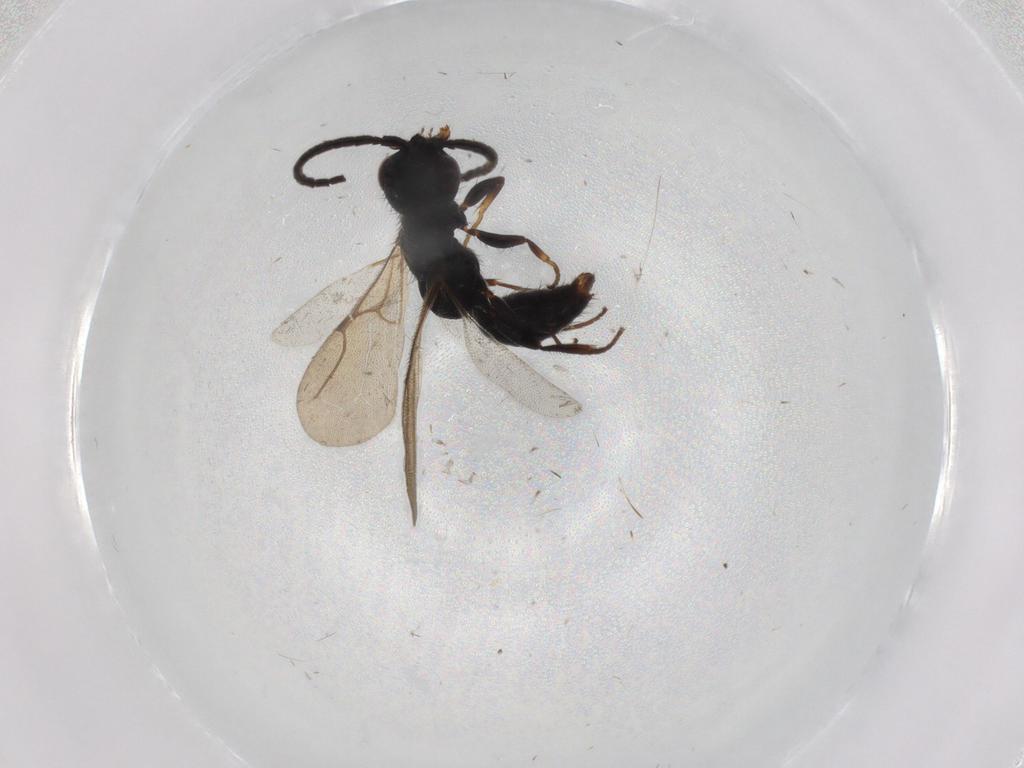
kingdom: Animalia
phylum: Arthropoda
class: Insecta
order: Hymenoptera
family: Bethylidae
